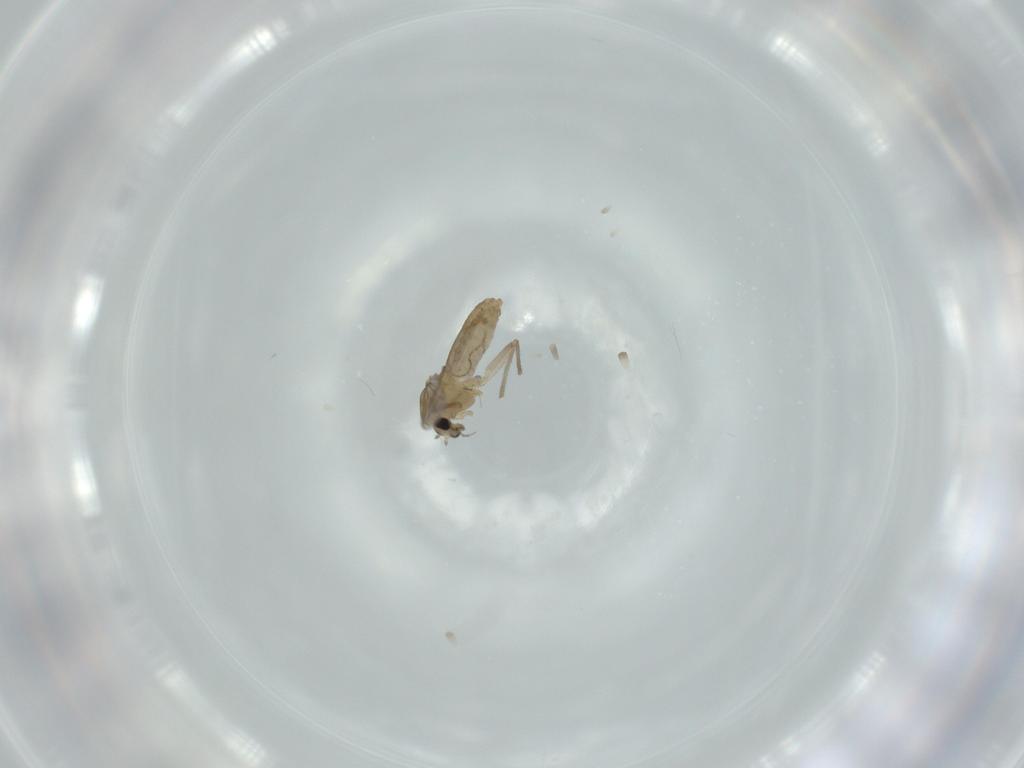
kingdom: Animalia
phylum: Arthropoda
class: Insecta
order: Diptera
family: Chironomidae
